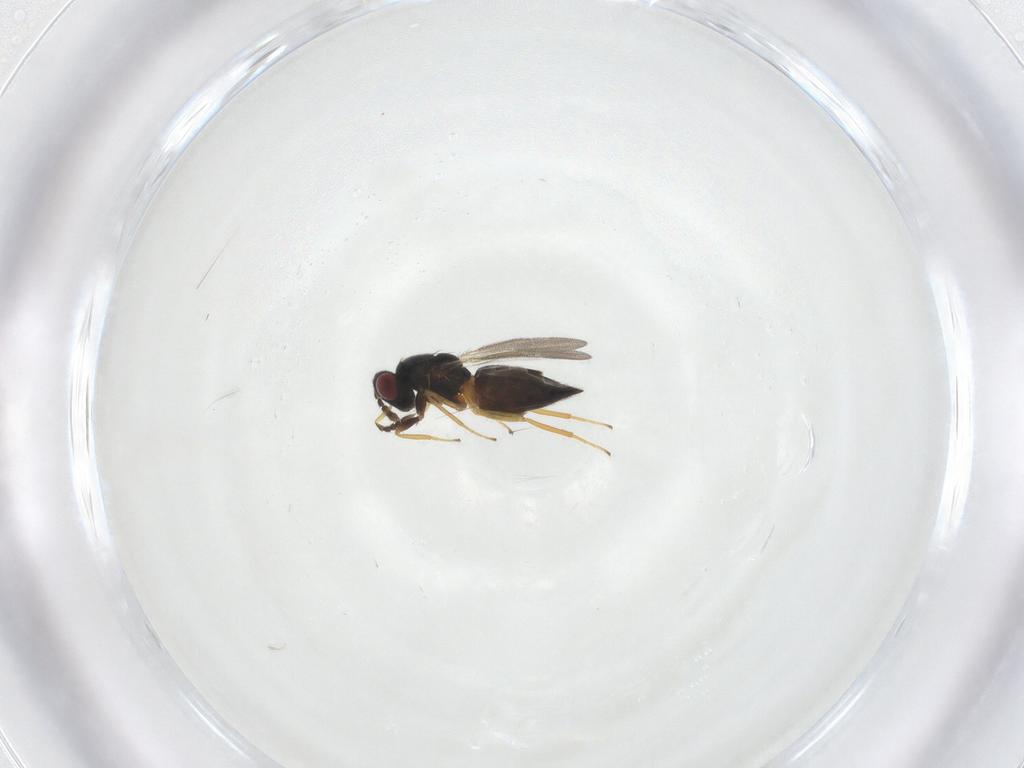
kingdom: Animalia
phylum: Arthropoda
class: Insecta
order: Hymenoptera
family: Eulophidae
